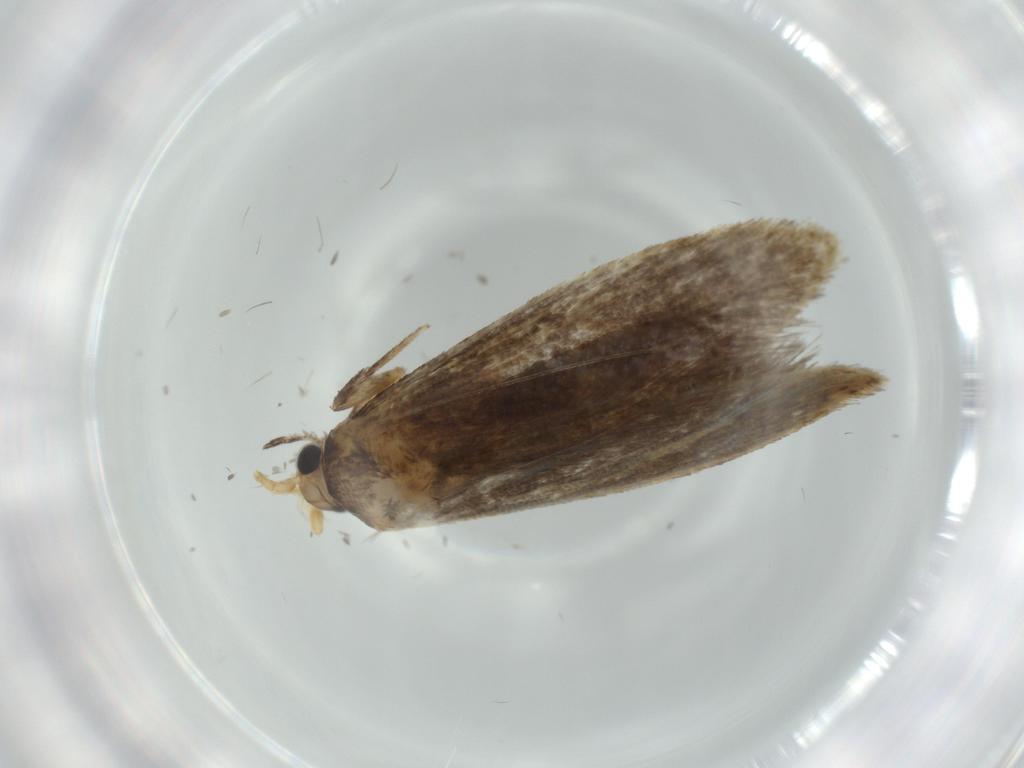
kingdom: Animalia
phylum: Arthropoda
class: Insecta
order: Lepidoptera
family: Tineidae
